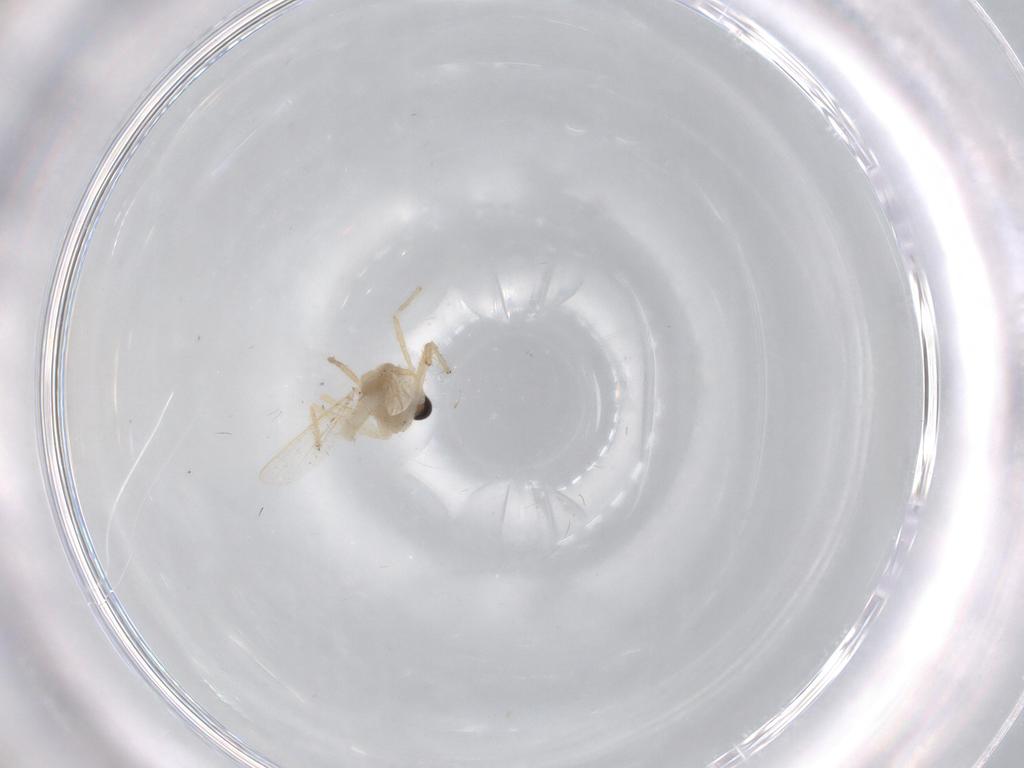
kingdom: Animalia
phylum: Arthropoda
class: Insecta
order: Diptera
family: Chironomidae
